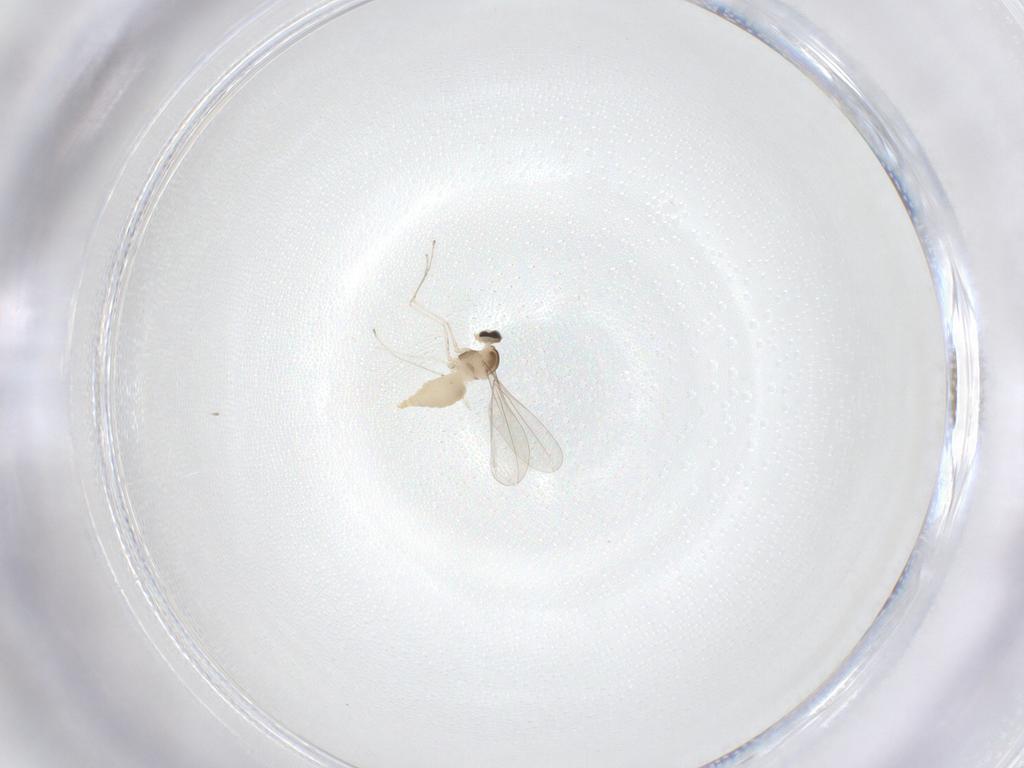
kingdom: Animalia
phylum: Arthropoda
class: Insecta
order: Diptera
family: Cecidomyiidae
